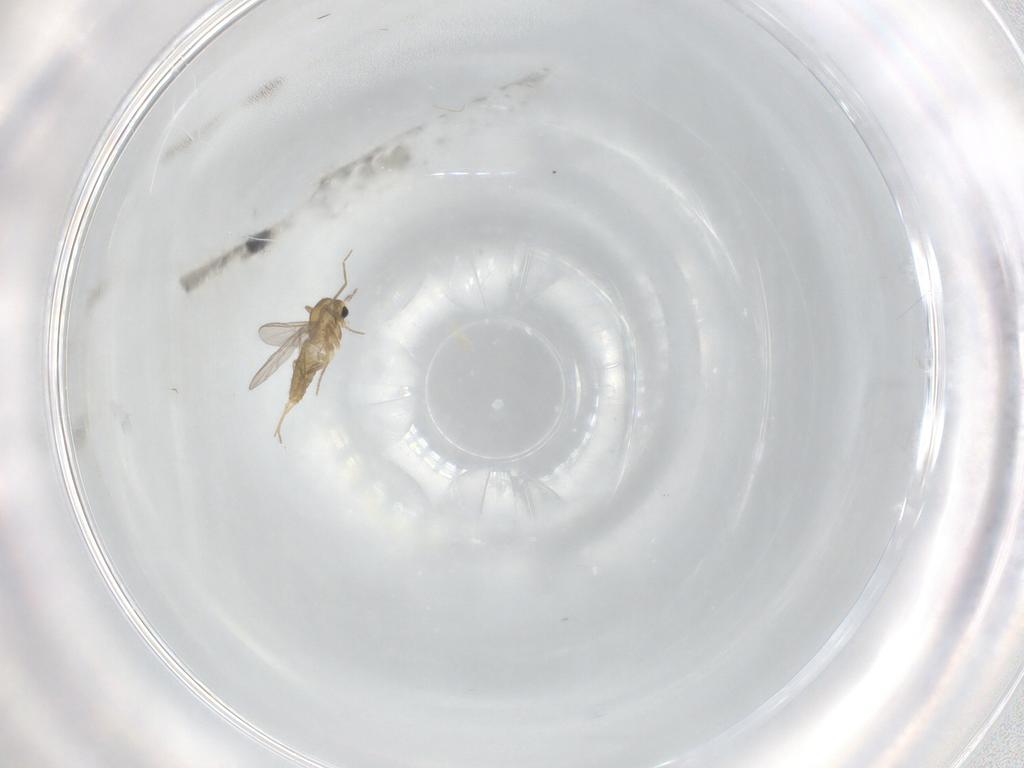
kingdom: Animalia
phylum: Arthropoda
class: Insecta
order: Diptera
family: Chironomidae
